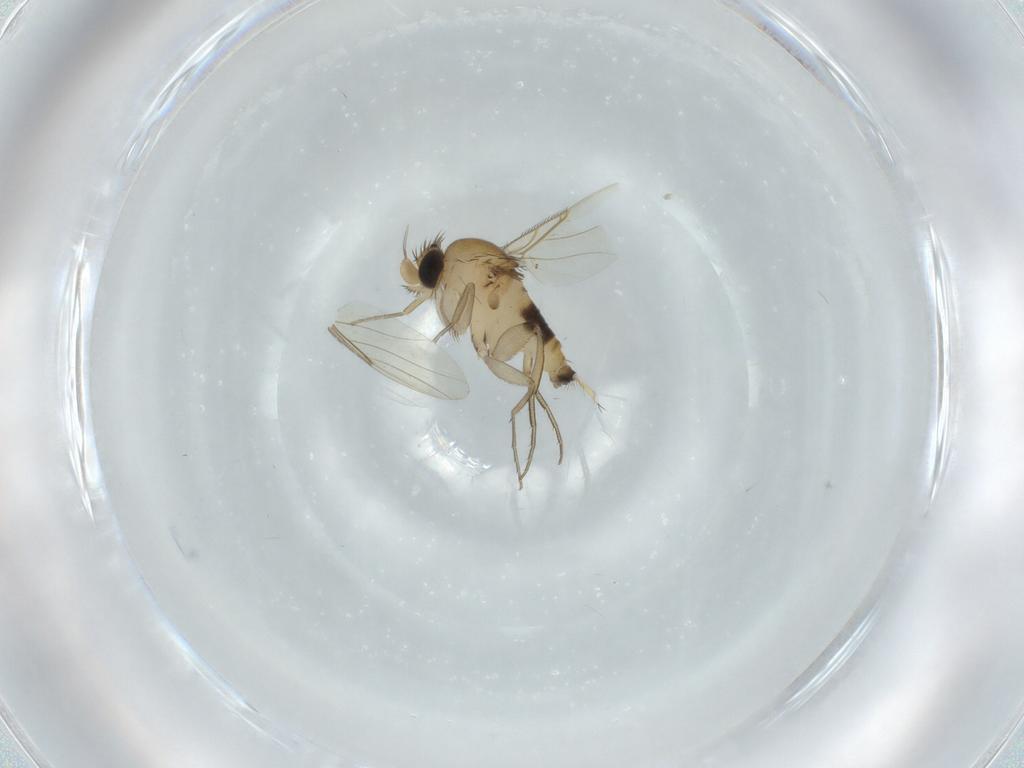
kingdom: Animalia
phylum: Arthropoda
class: Insecta
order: Diptera
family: Phoridae
